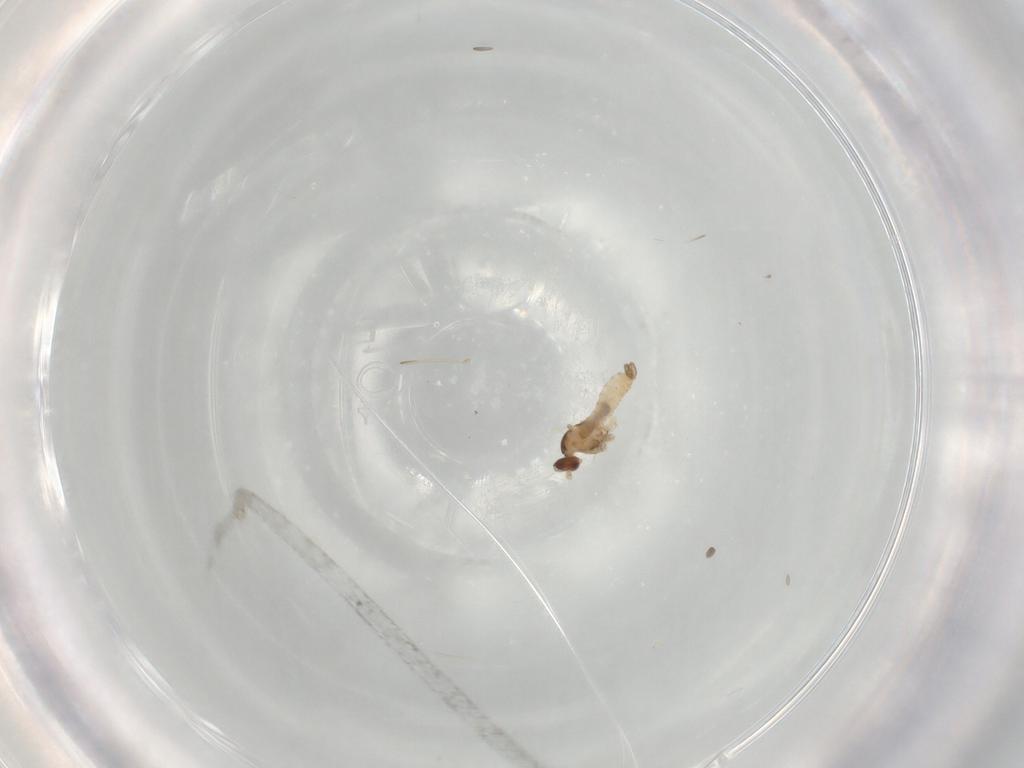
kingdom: Animalia
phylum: Arthropoda
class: Insecta
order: Diptera
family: Cecidomyiidae
